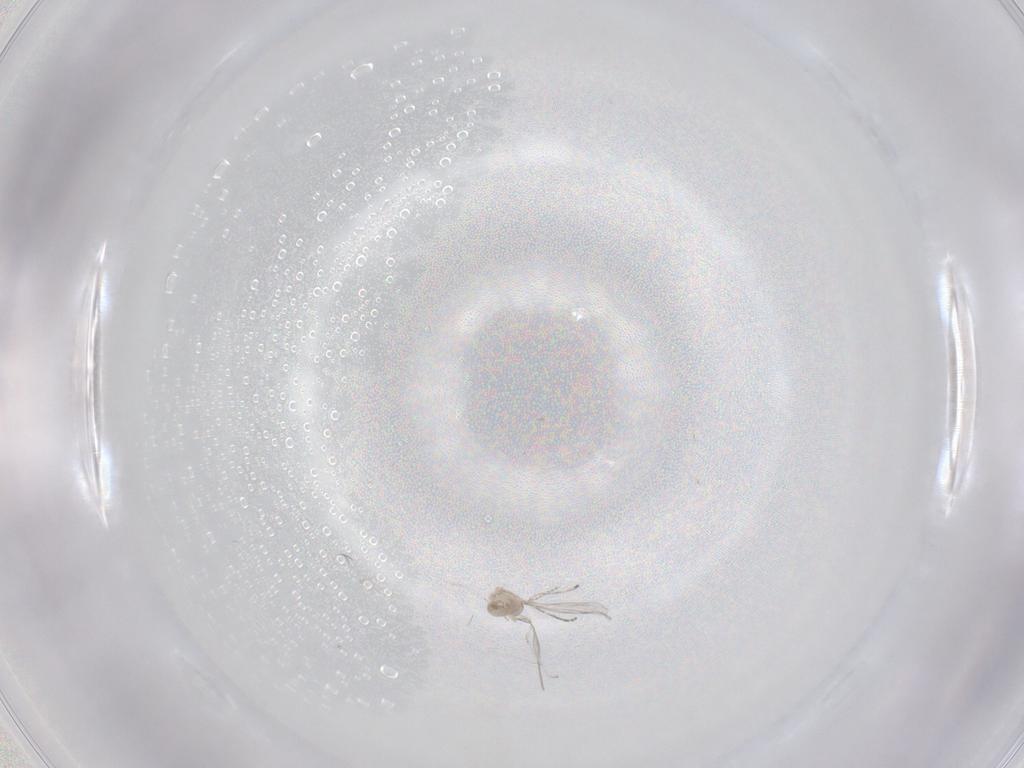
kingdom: Animalia
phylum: Arthropoda
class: Insecta
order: Diptera
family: Cecidomyiidae
